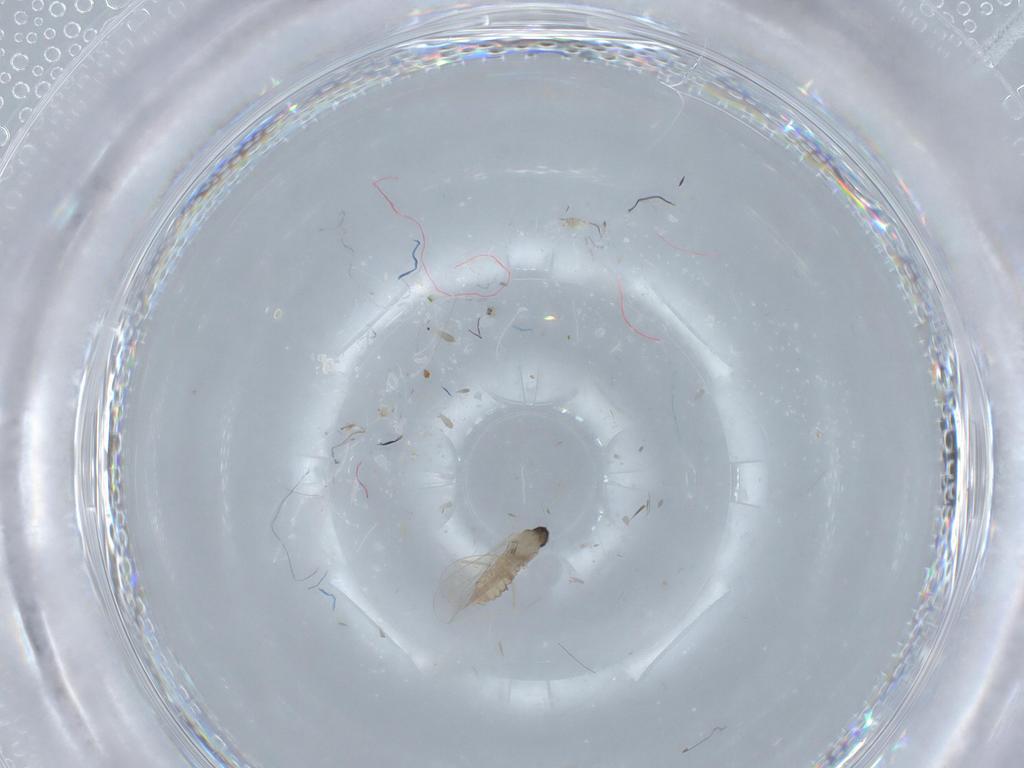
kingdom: Animalia
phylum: Arthropoda
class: Insecta
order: Diptera
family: Cecidomyiidae
